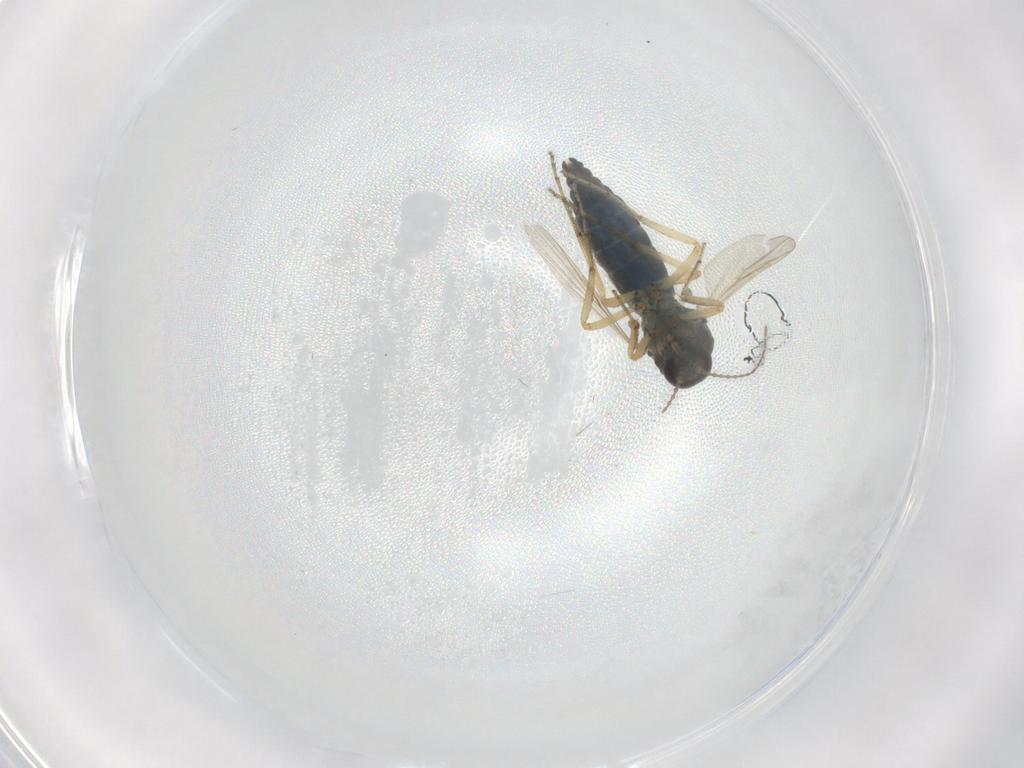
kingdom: Animalia
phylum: Arthropoda
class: Insecta
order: Diptera
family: Ceratopogonidae
